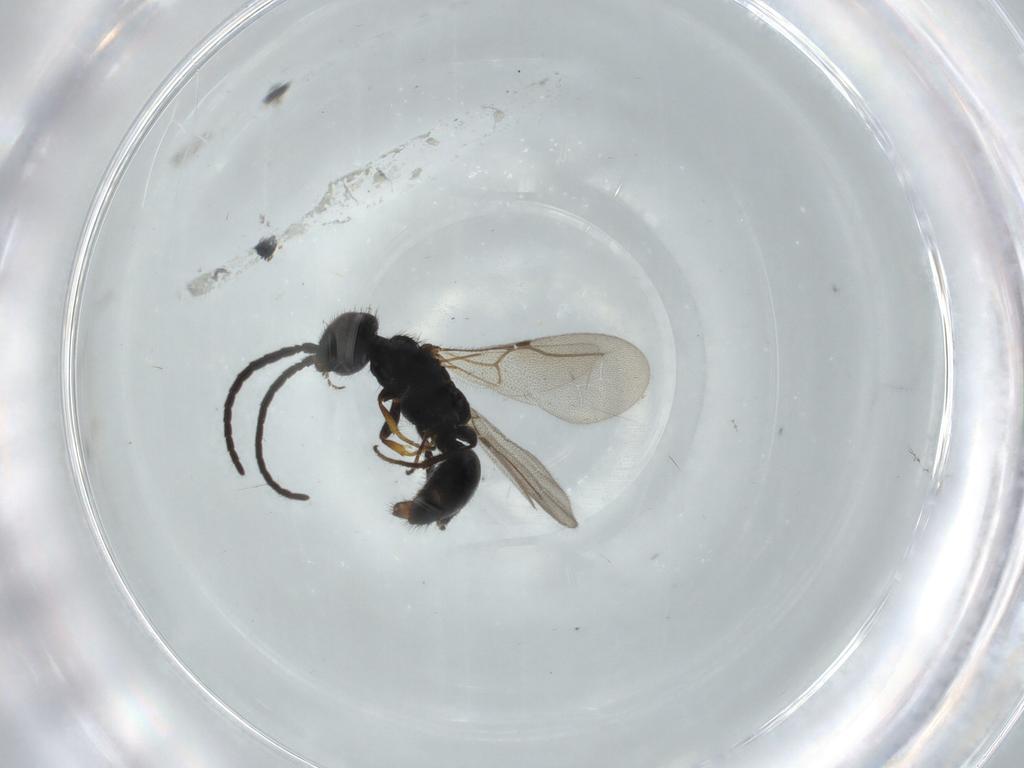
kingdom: Animalia
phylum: Arthropoda
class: Insecta
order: Hymenoptera
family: Bethylidae
